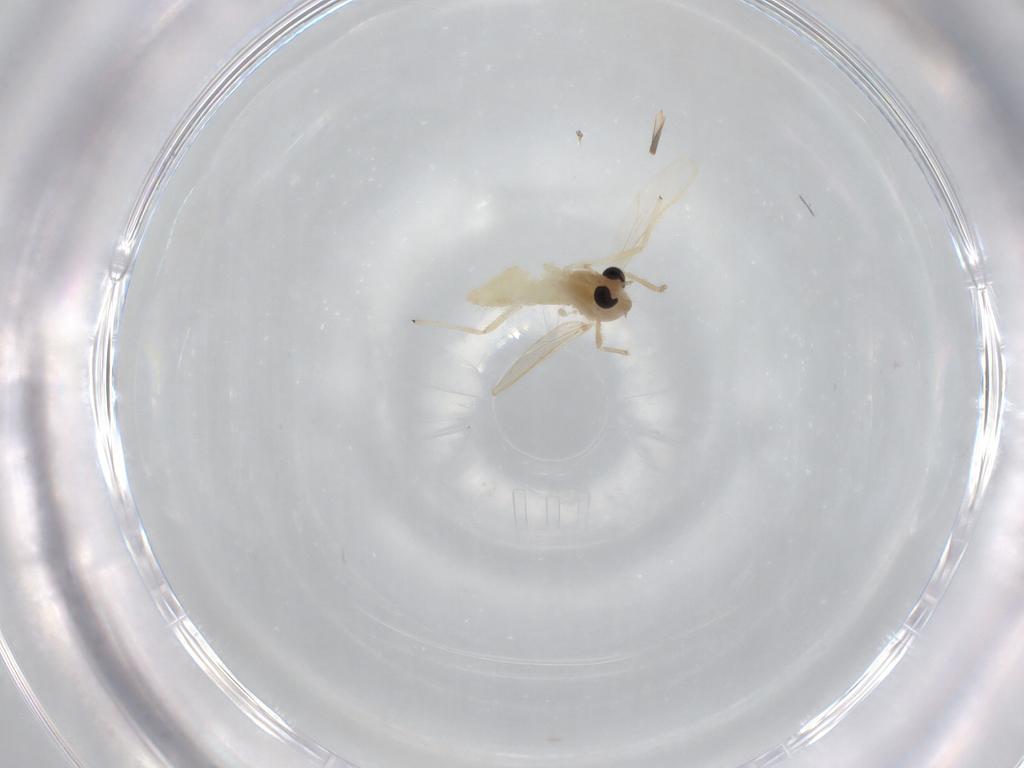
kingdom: Animalia
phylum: Arthropoda
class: Insecta
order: Diptera
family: Chironomidae
